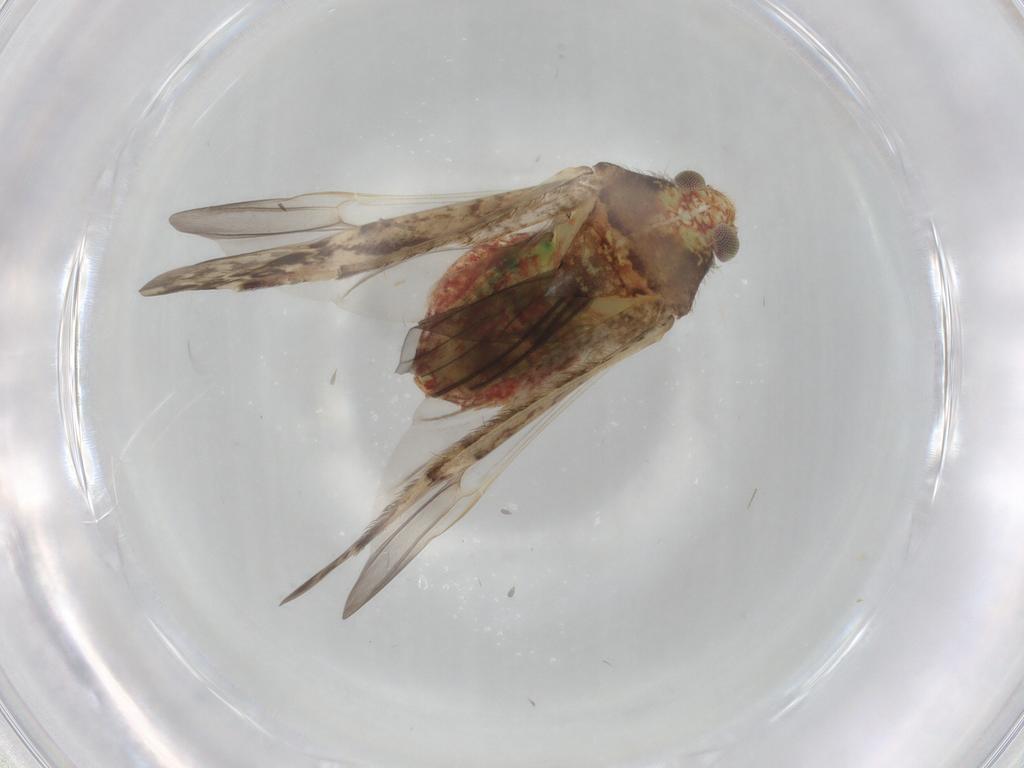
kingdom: Animalia
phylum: Arthropoda
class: Insecta
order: Hemiptera
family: Miridae
